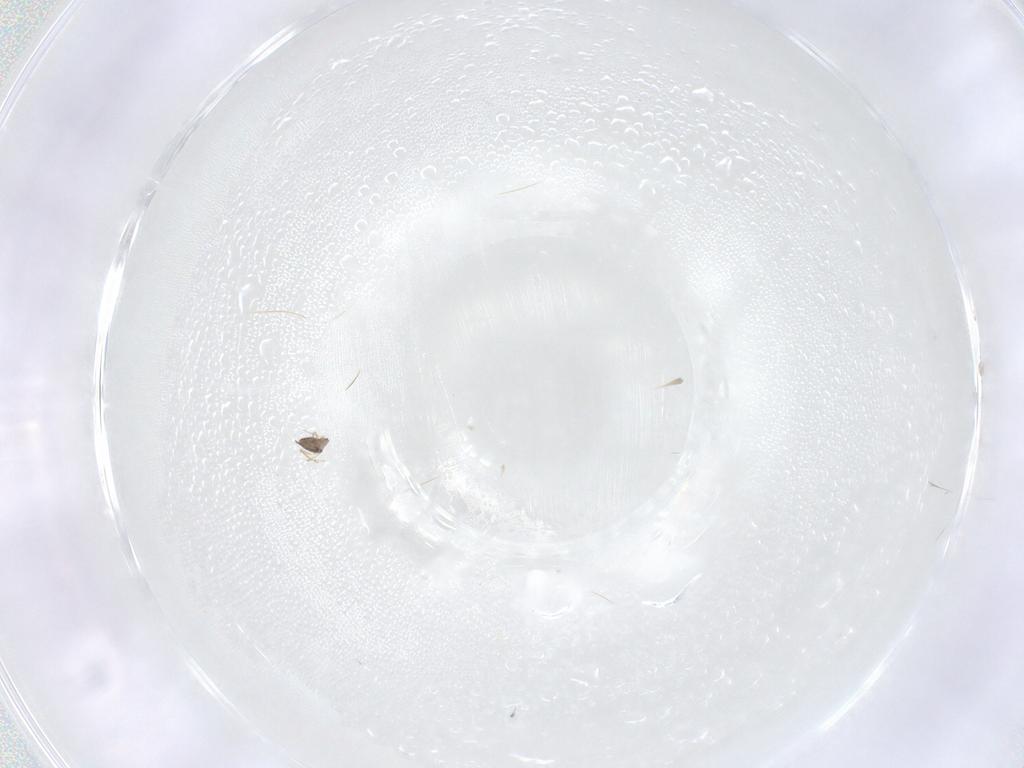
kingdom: Animalia
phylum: Arthropoda
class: Insecta
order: Hymenoptera
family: Mymaridae
